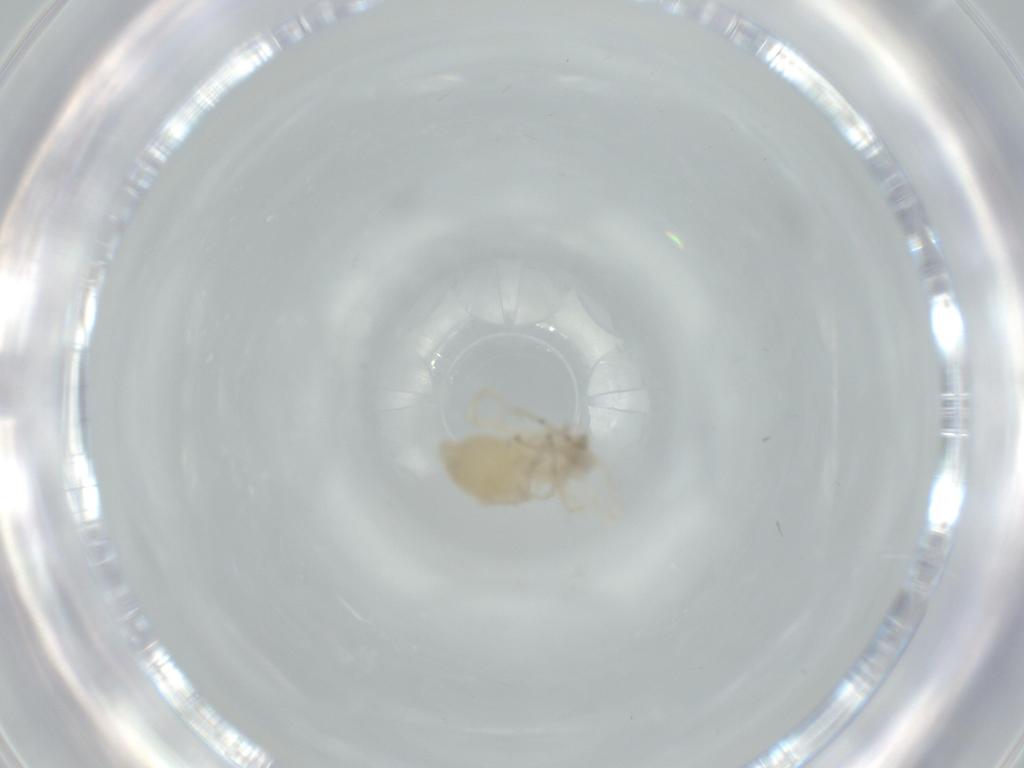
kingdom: Animalia
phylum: Arthropoda
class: Arachnida
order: Araneae
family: Anyphaenidae
